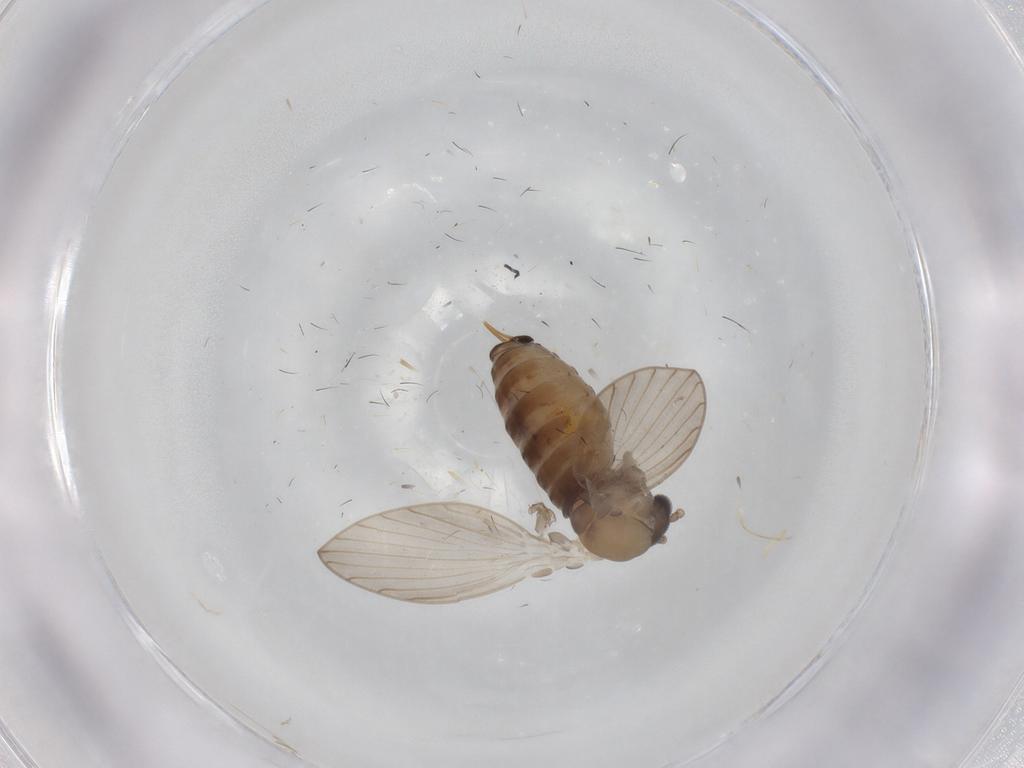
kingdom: Animalia
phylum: Arthropoda
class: Insecta
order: Diptera
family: Psychodidae
